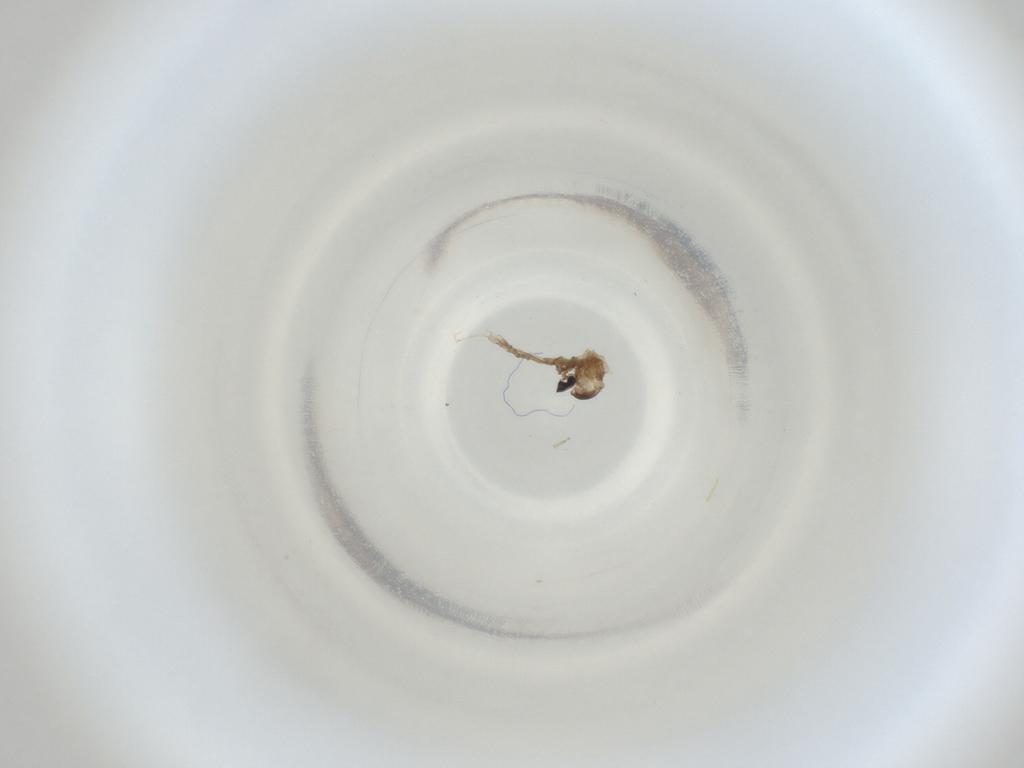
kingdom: Animalia
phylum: Arthropoda
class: Insecta
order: Diptera
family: Cecidomyiidae
